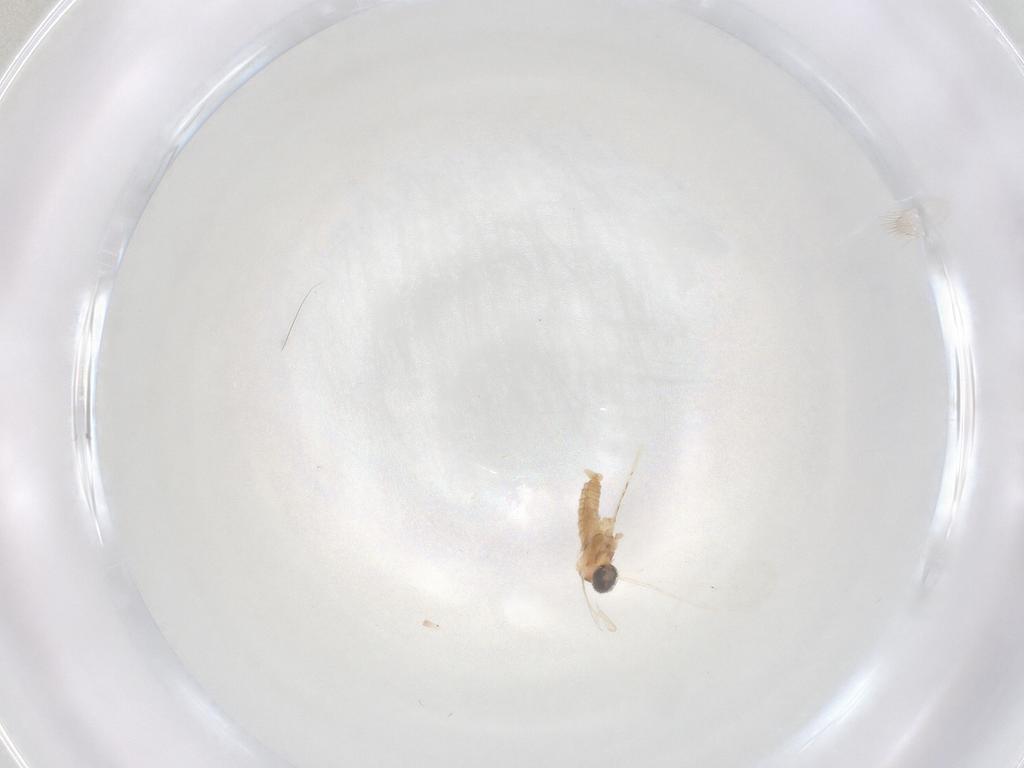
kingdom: Animalia
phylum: Arthropoda
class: Insecta
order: Diptera
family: Cecidomyiidae
